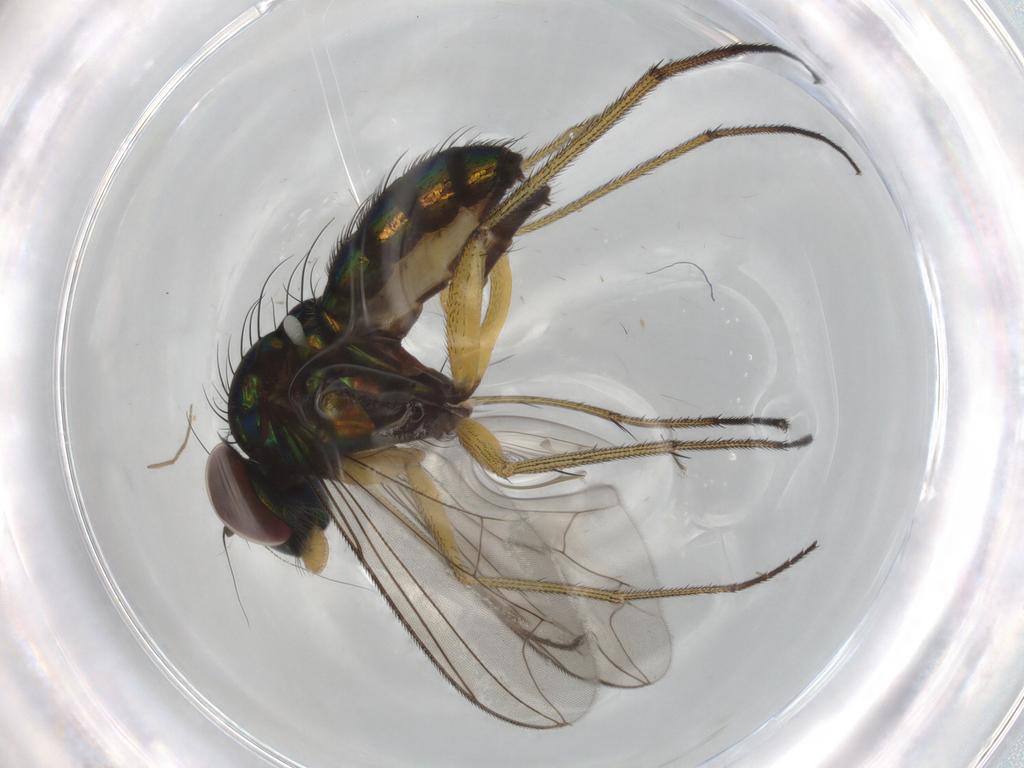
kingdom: Animalia
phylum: Arthropoda
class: Insecta
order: Diptera
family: Dolichopodidae
